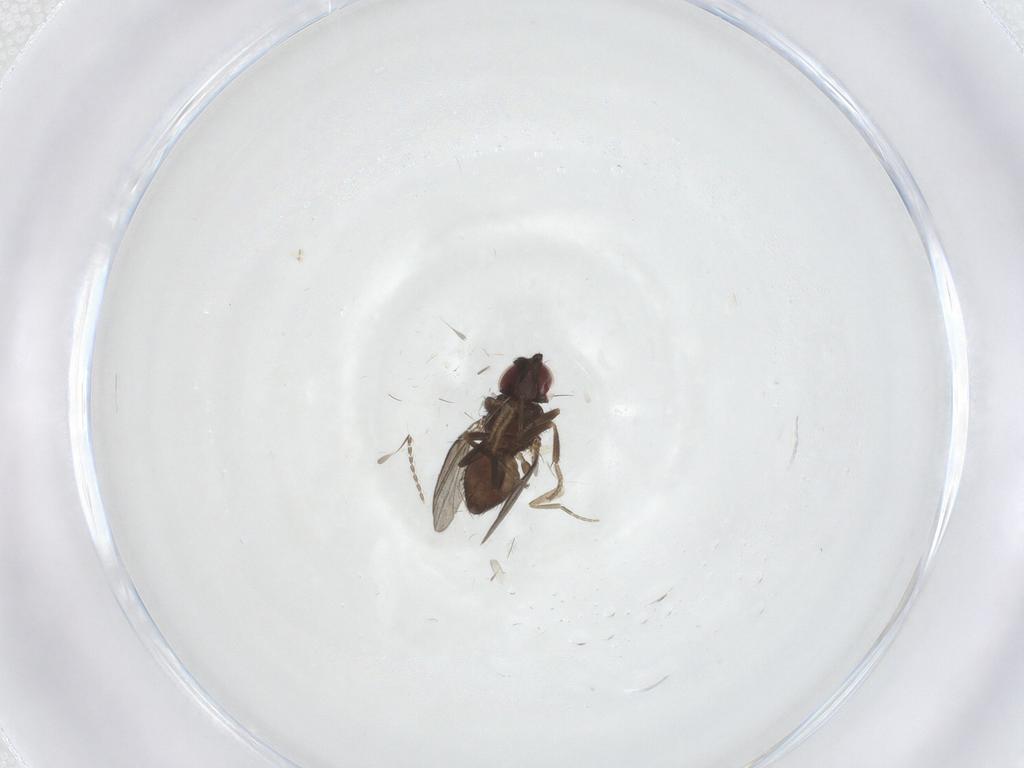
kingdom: Animalia
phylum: Arthropoda
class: Insecta
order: Diptera
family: Milichiidae
